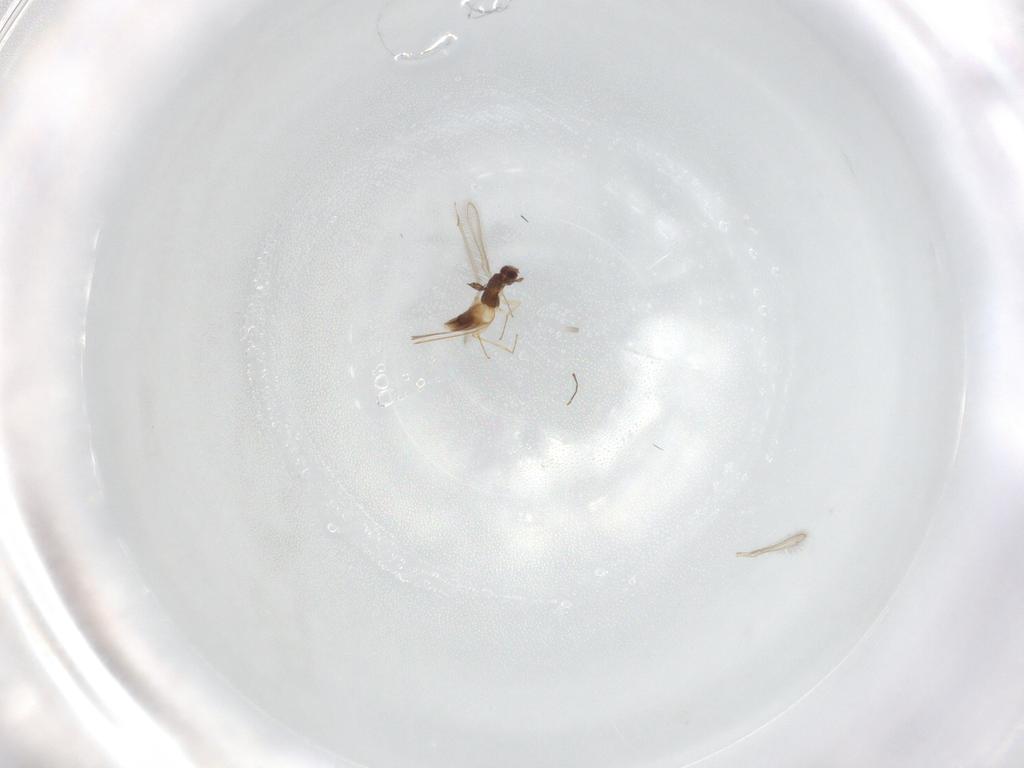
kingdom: Animalia
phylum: Arthropoda
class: Insecta
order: Hymenoptera
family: Mymaridae
